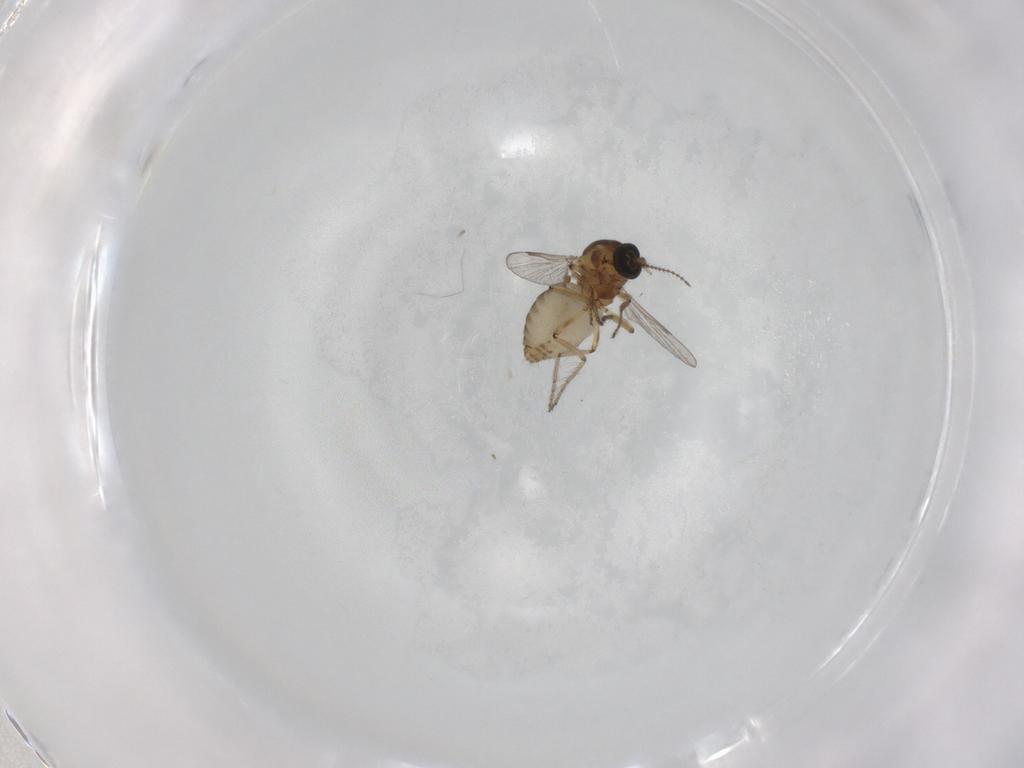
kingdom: Animalia
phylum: Arthropoda
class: Insecta
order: Diptera
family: Ceratopogonidae
